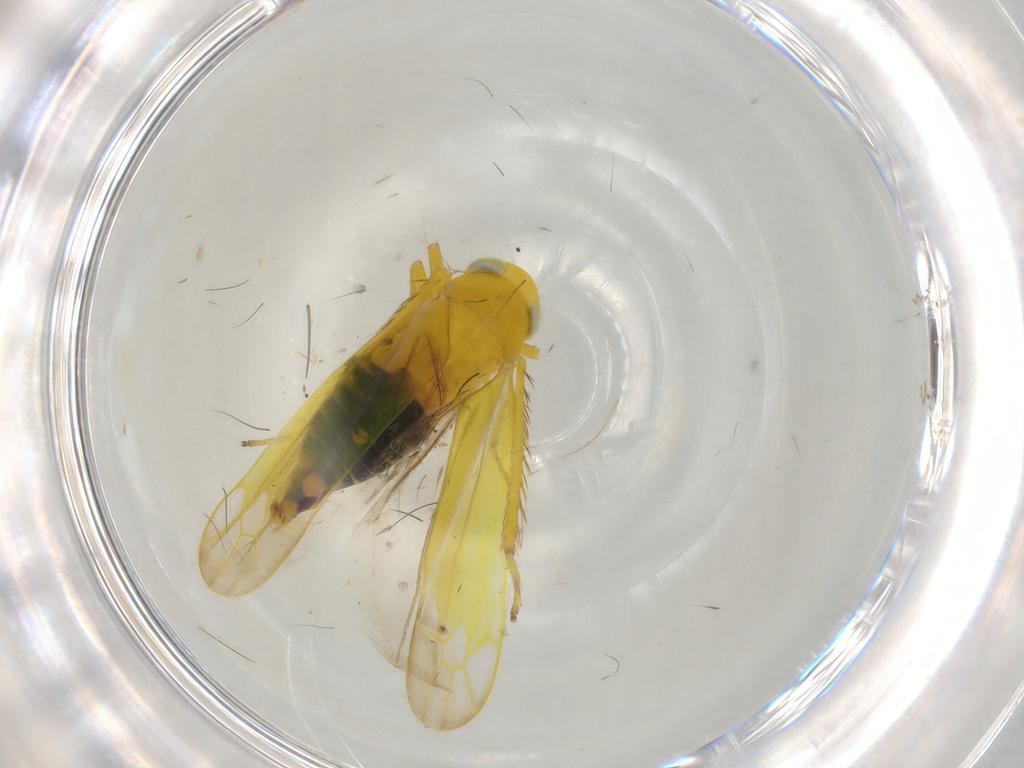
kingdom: Animalia
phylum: Arthropoda
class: Insecta
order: Hemiptera
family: Cicadellidae
